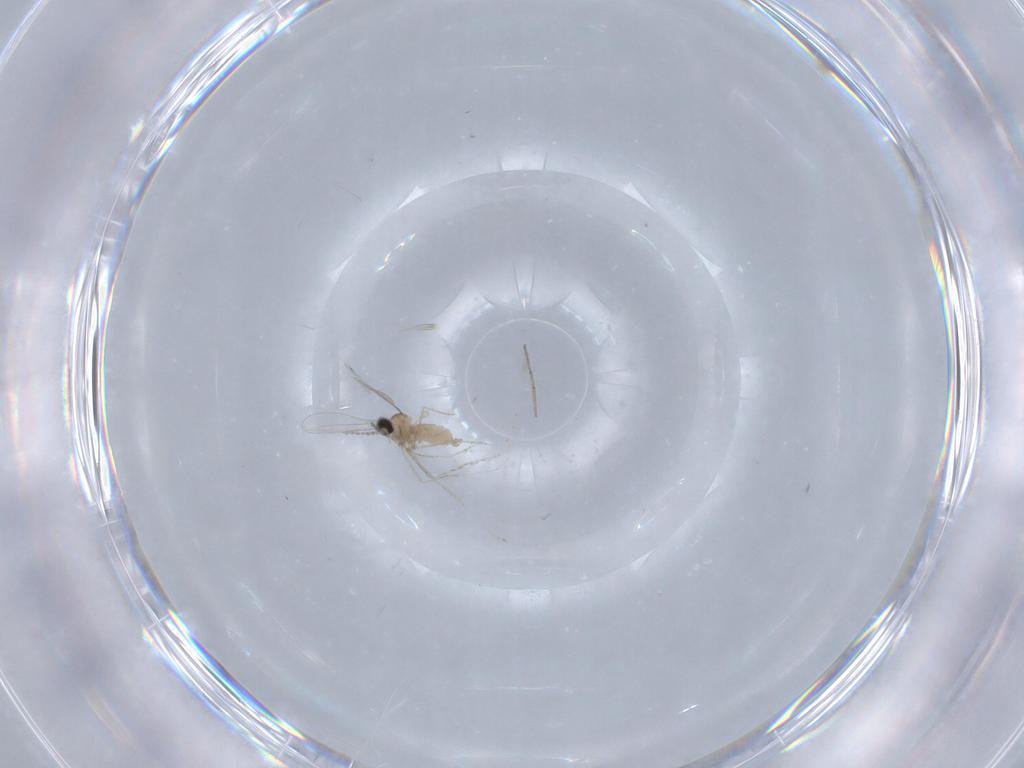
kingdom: Animalia
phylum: Arthropoda
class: Insecta
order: Diptera
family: Cecidomyiidae
